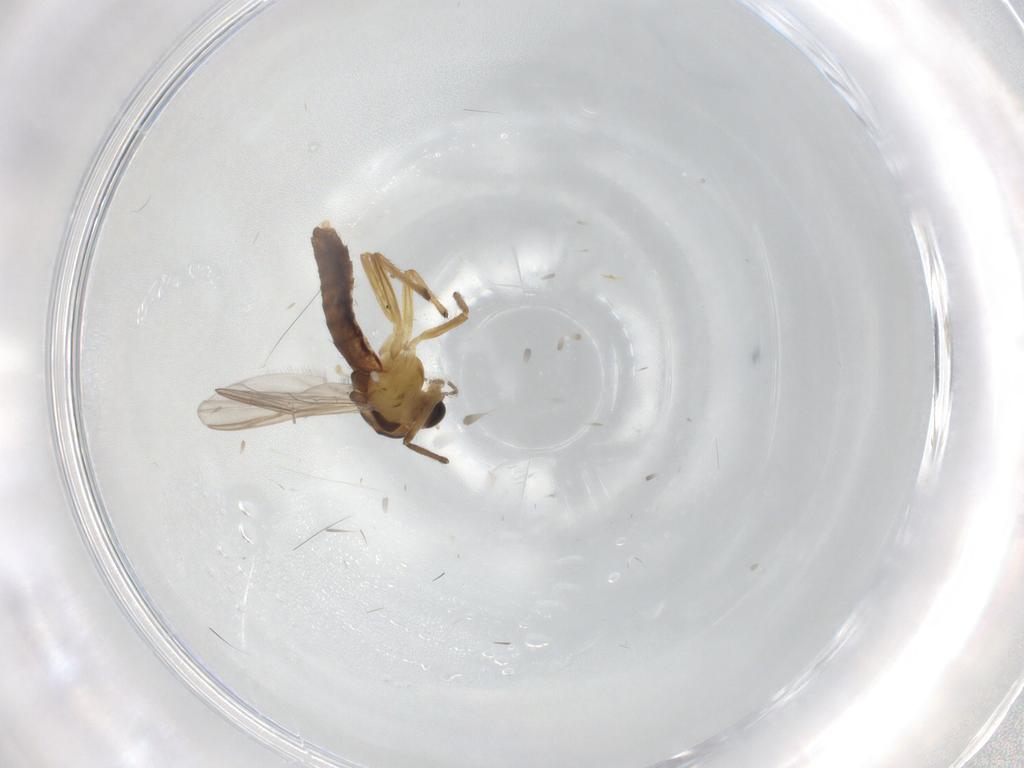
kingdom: Animalia
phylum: Arthropoda
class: Insecta
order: Diptera
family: Chironomidae
